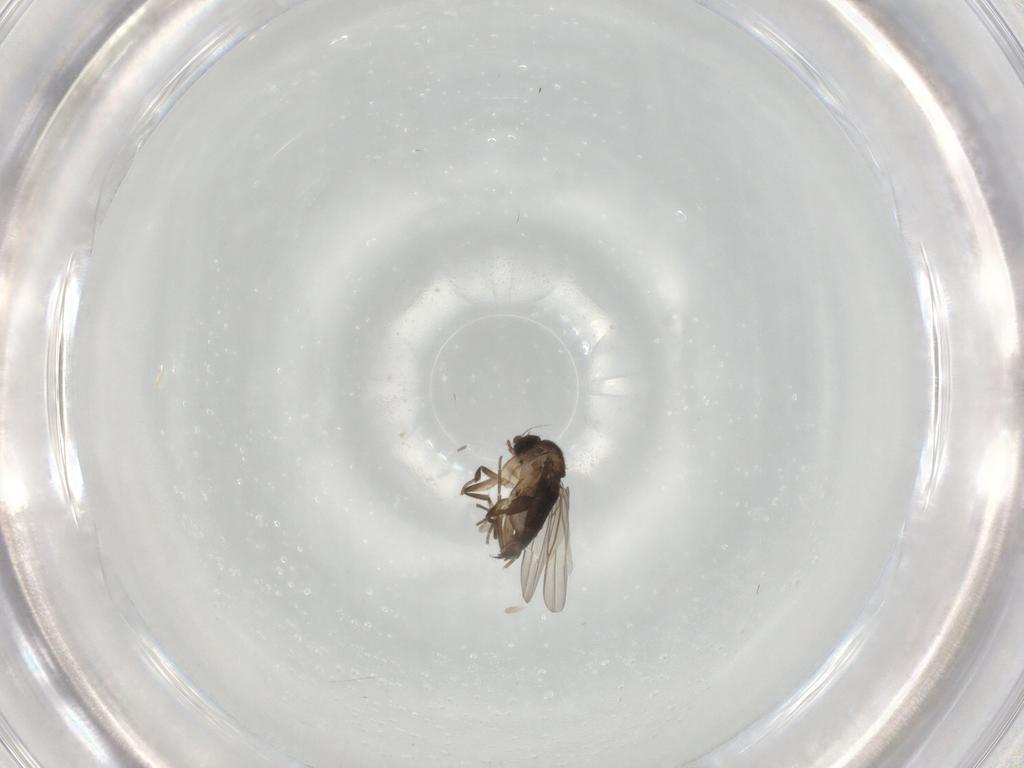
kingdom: Animalia
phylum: Arthropoda
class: Insecta
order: Diptera
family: Phoridae
